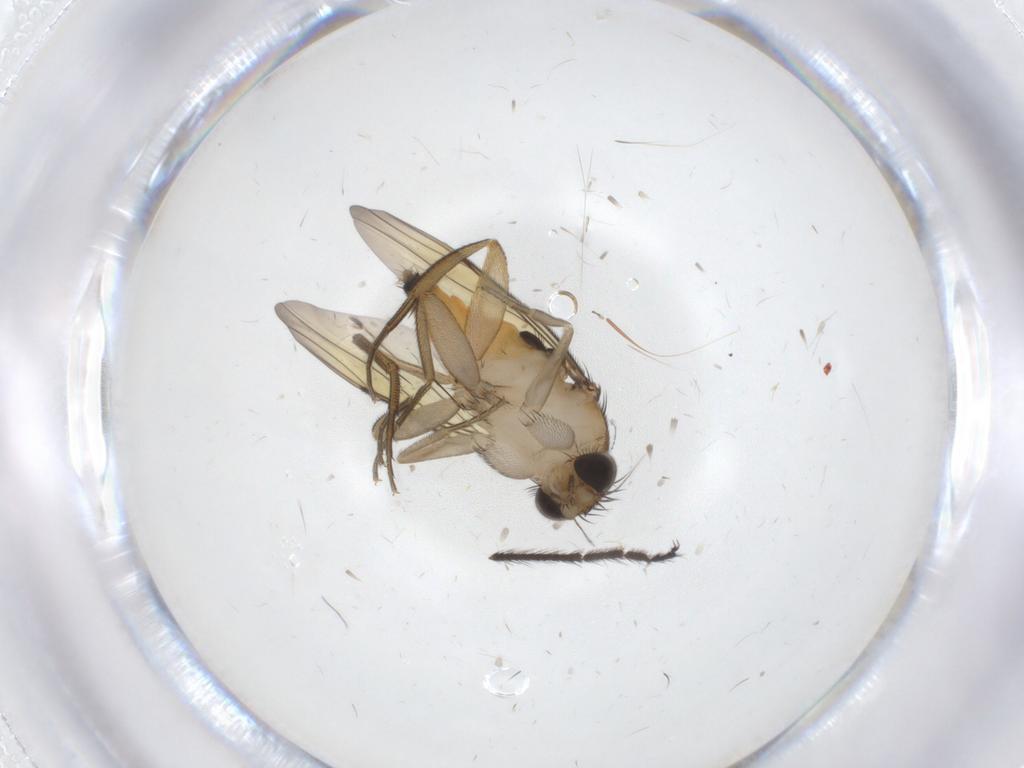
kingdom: Animalia
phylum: Arthropoda
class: Insecta
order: Diptera
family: Limoniidae
